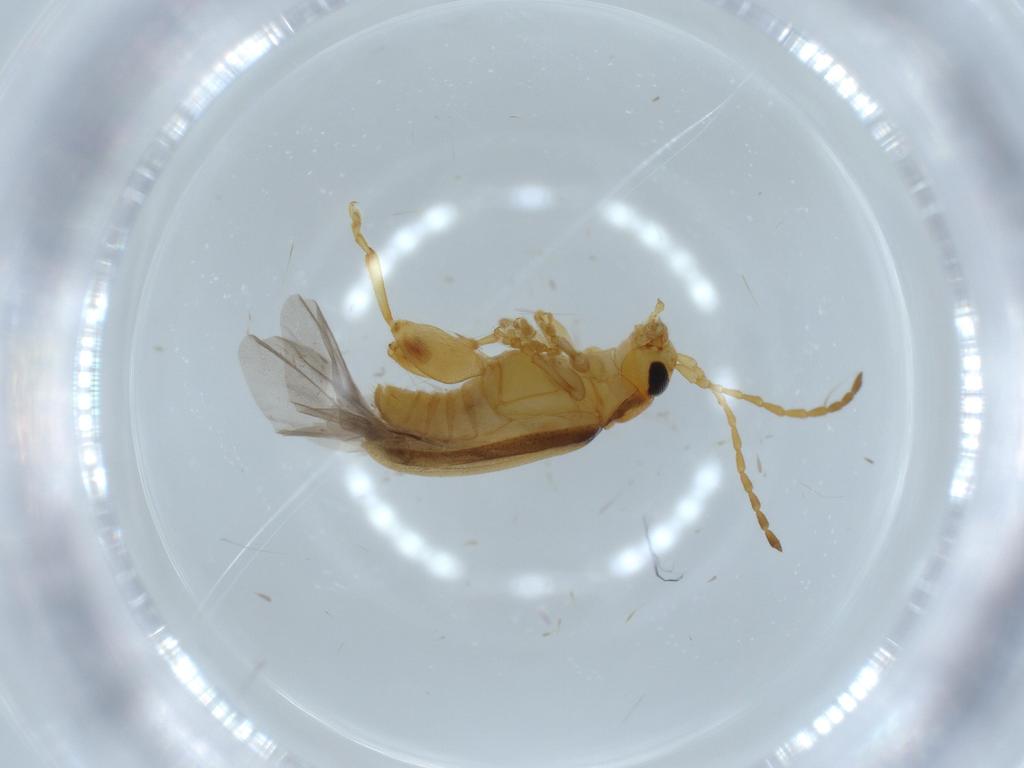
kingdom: Animalia
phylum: Arthropoda
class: Insecta
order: Coleoptera
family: Chrysomelidae
